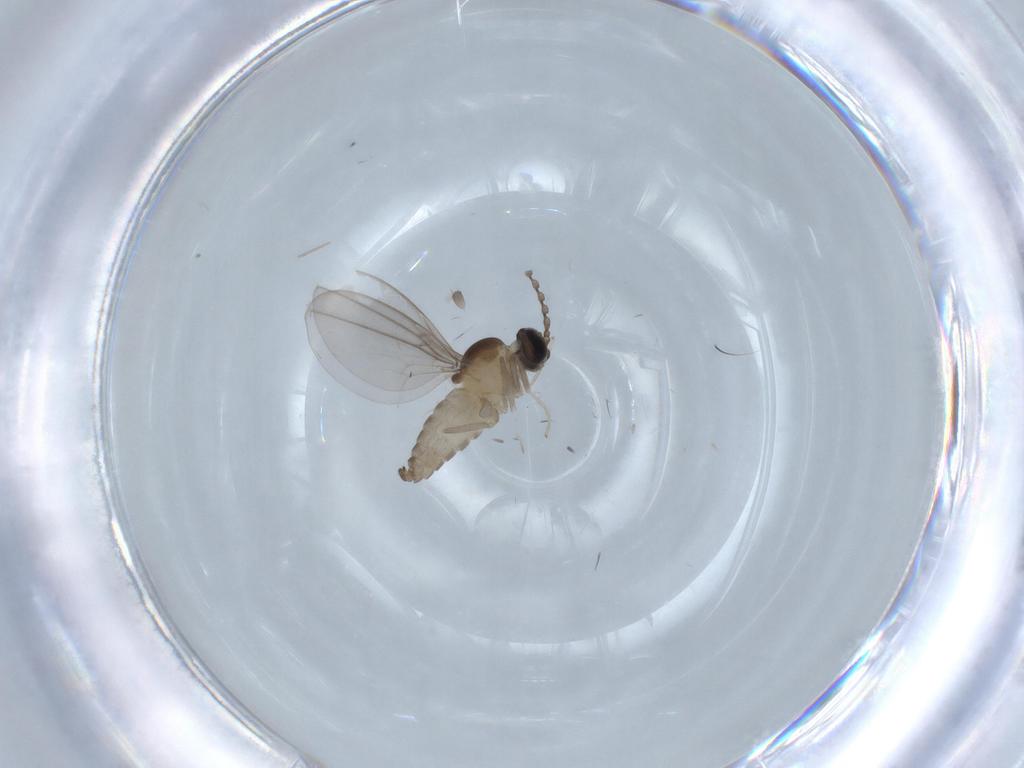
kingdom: Animalia
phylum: Arthropoda
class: Insecta
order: Diptera
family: Cecidomyiidae
